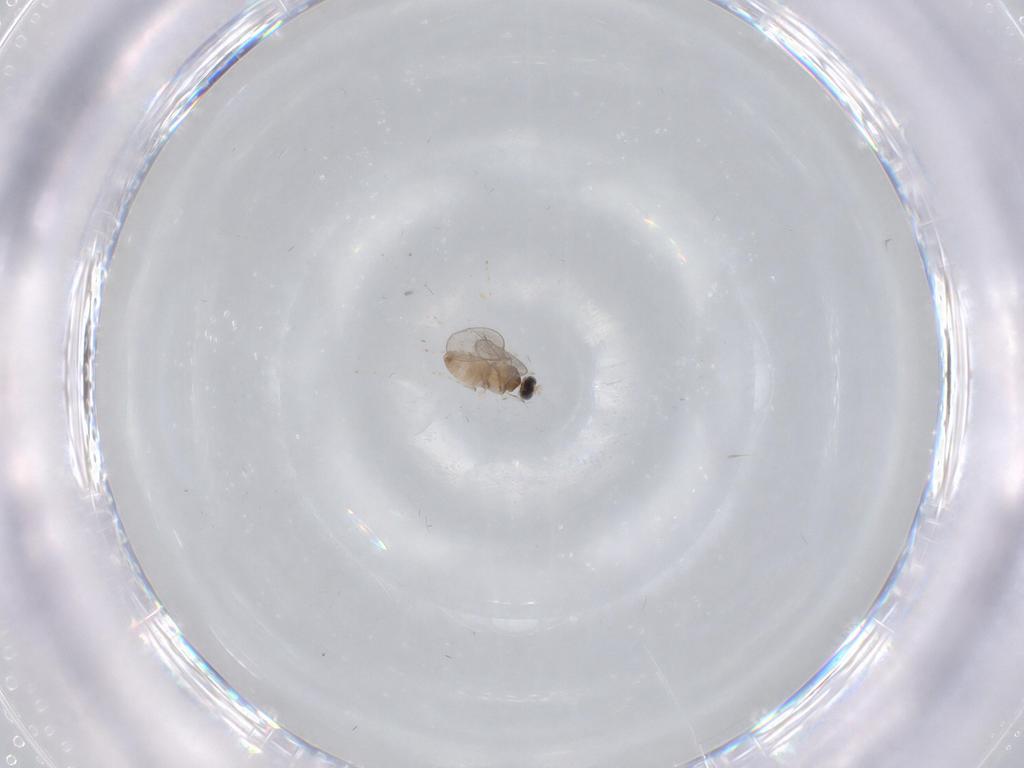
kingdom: Animalia
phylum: Arthropoda
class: Insecta
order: Diptera
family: Cecidomyiidae
